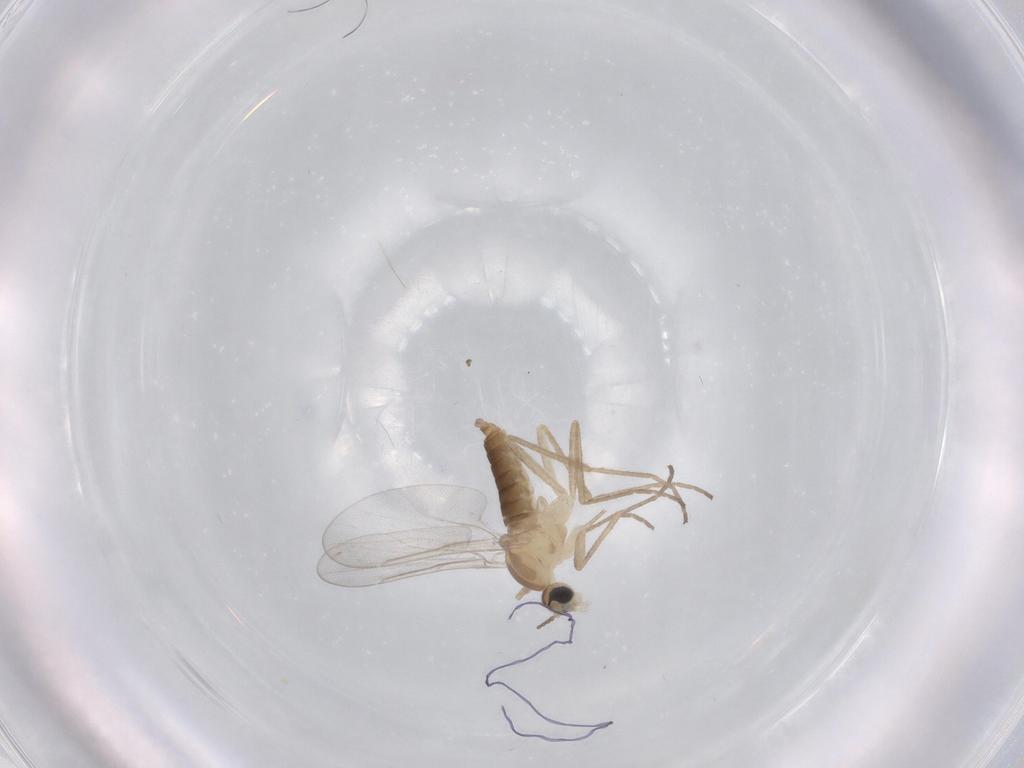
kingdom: Animalia
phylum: Arthropoda
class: Insecta
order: Diptera
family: Cecidomyiidae
